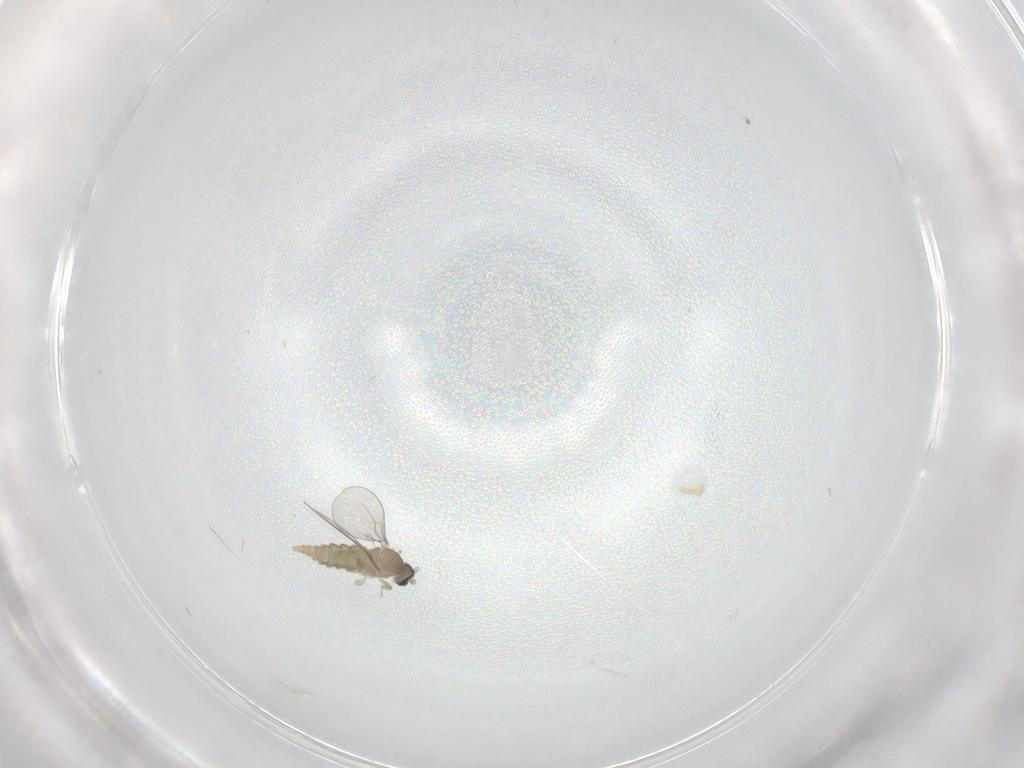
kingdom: Animalia
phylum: Arthropoda
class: Insecta
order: Diptera
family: Cecidomyiidae
